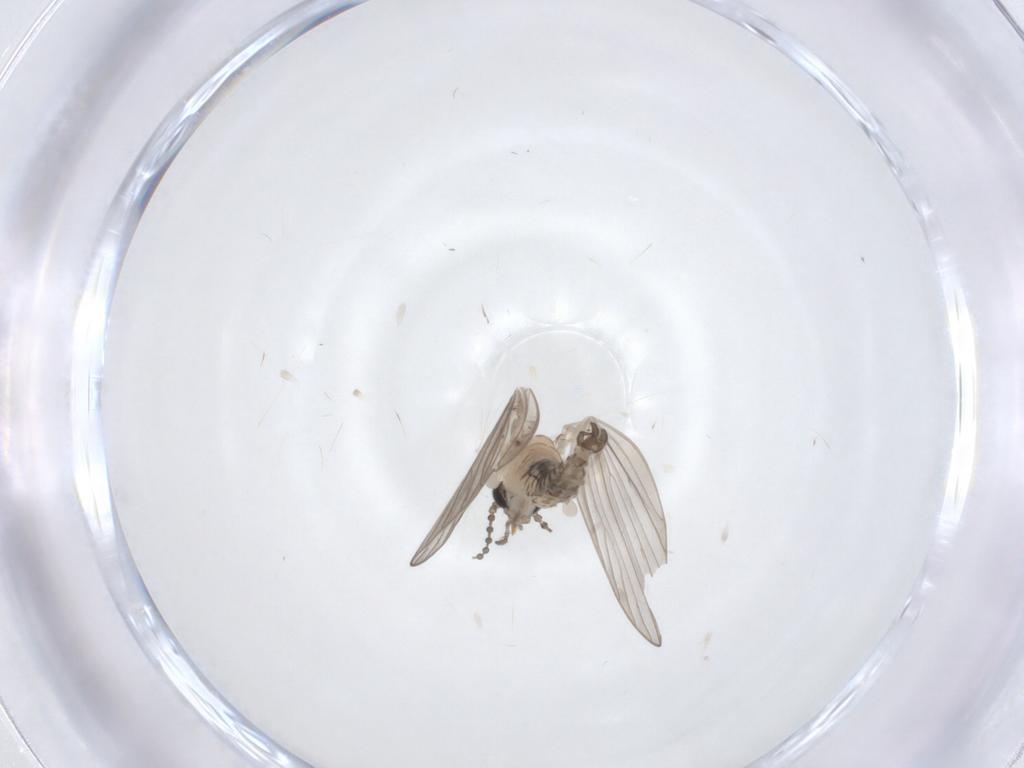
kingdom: Animalia
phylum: Arthropoda
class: Insecta
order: Diptera
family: Psychodidae
